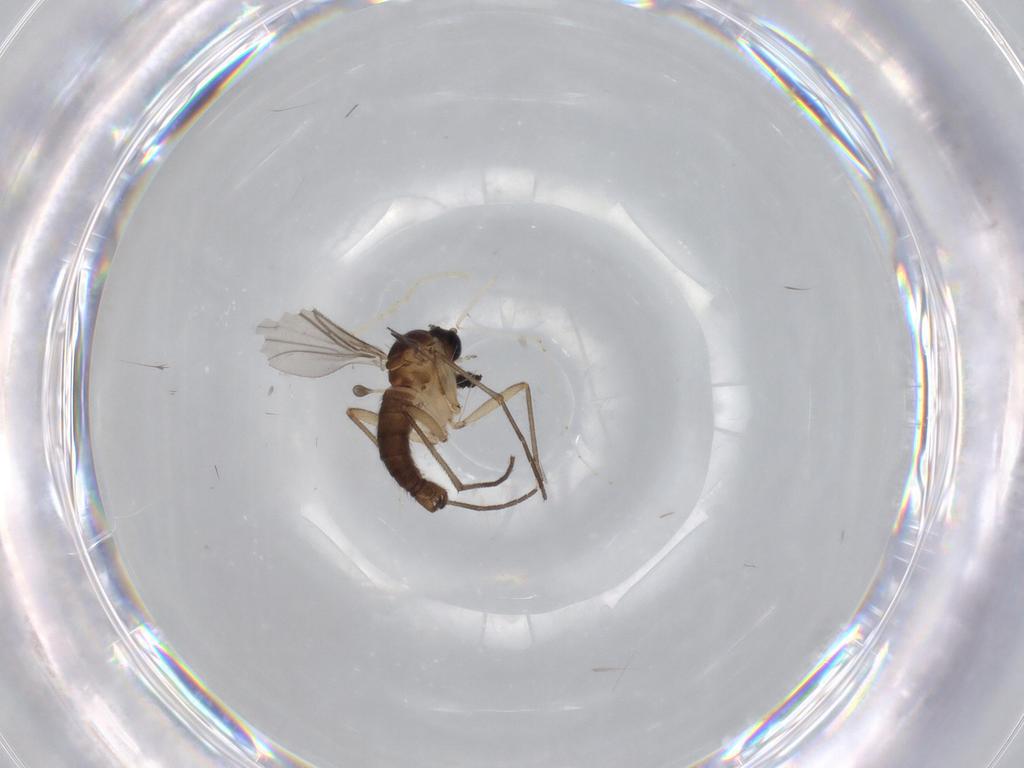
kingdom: Animalia
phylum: Arthropoda
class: Insecta
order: Diptera
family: Sciaridae
